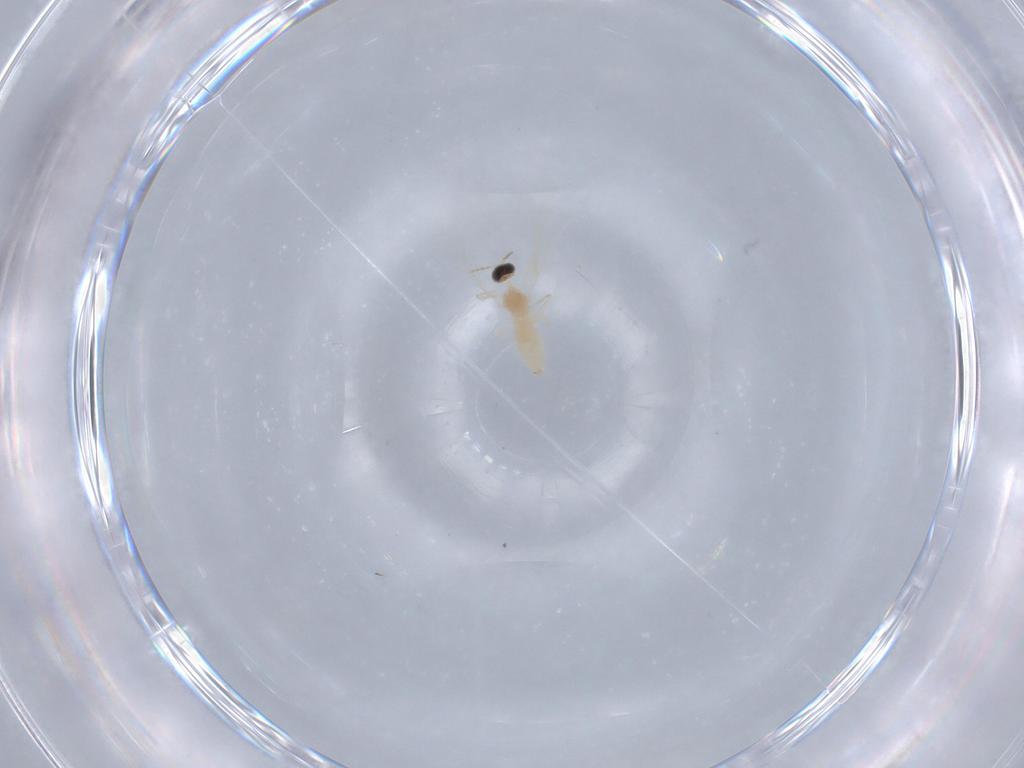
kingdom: Animalia
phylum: Arthropoda
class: Insecta
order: Diptera
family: Cecidomyiidae
